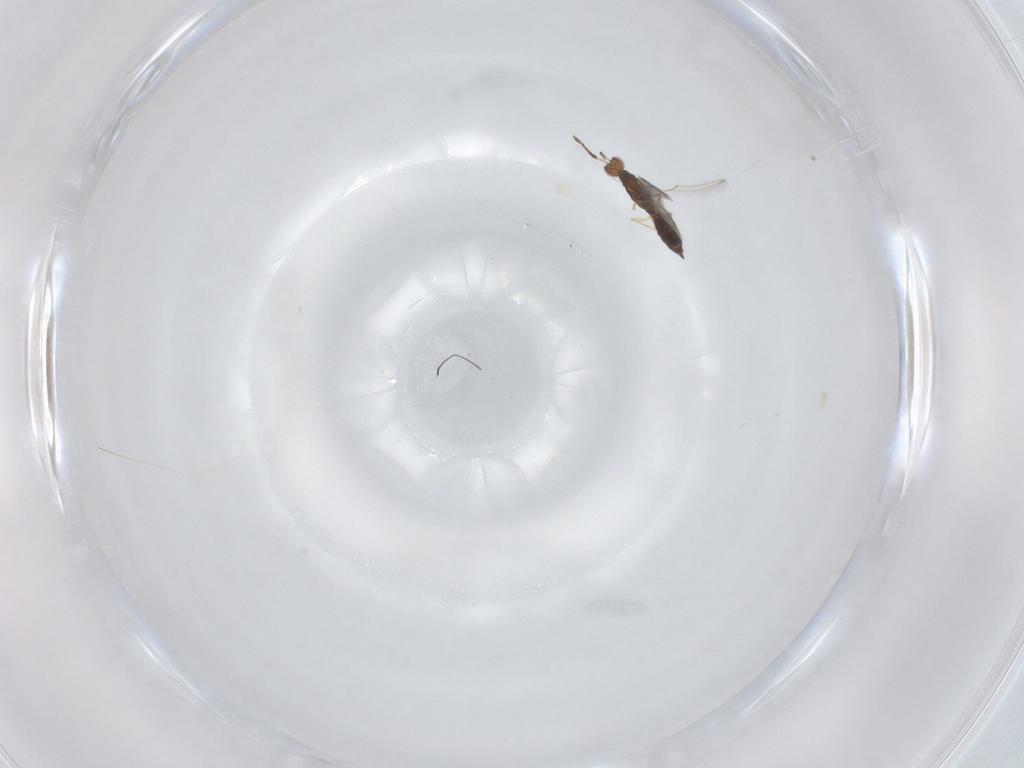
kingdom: Animalia
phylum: Arthropoda
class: Insecta
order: Hymenoptera
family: Eulophidae
